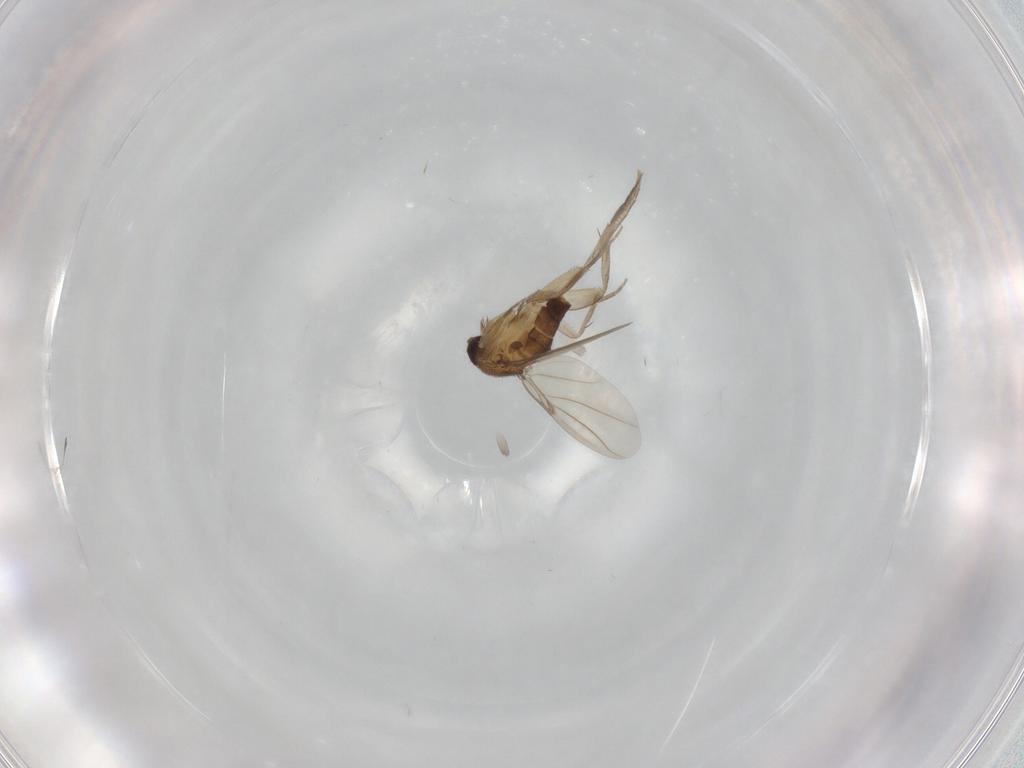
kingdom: Animalia
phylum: Arthropoda
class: Insecta
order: Diptera
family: Phoridae
